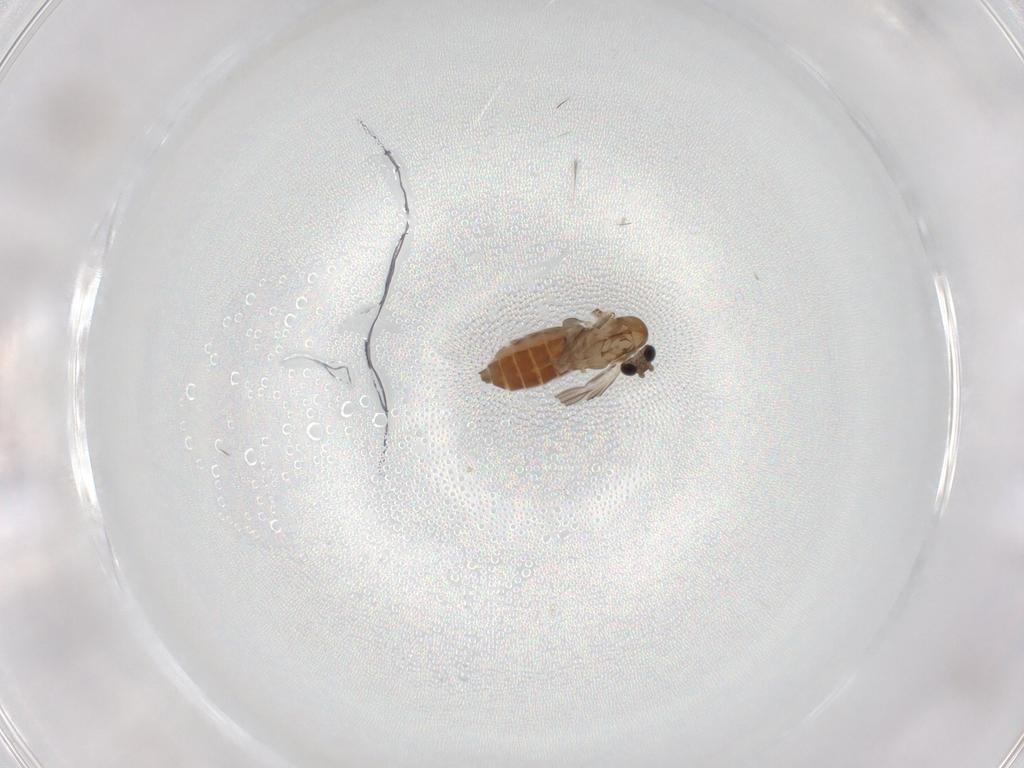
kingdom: Animalia
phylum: Arthropoda
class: Insecta
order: Diptera
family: Cecidomyiidae
